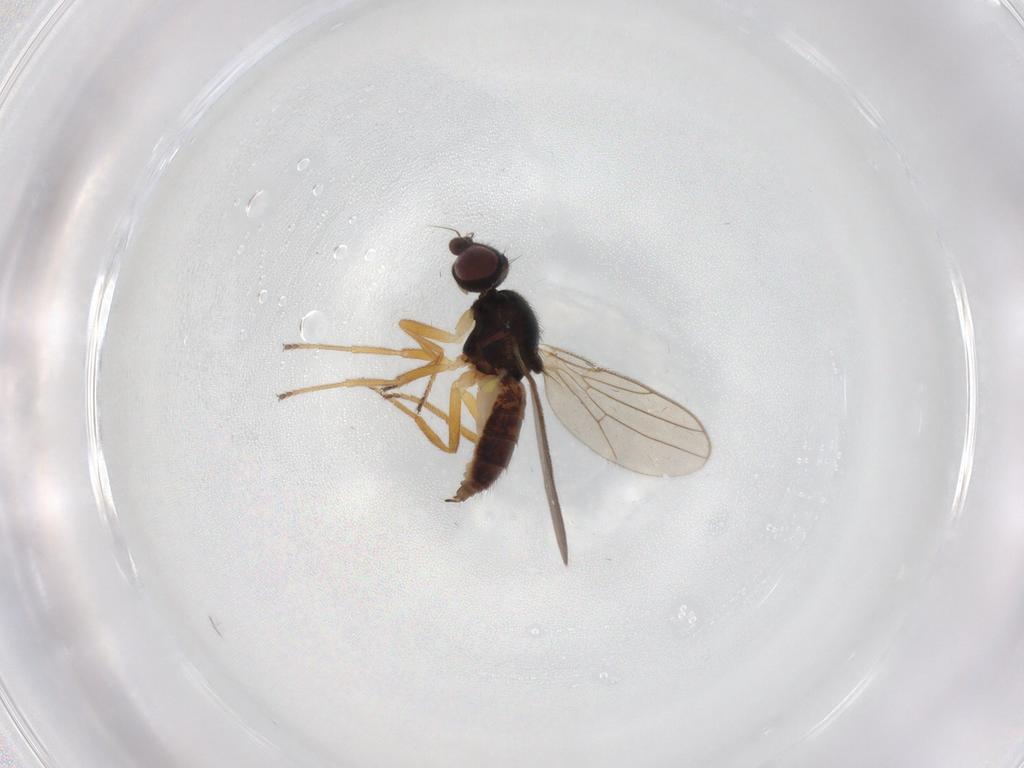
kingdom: Animalia
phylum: Arthropoda
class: Insecta
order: Diptera
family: Chloropidae
